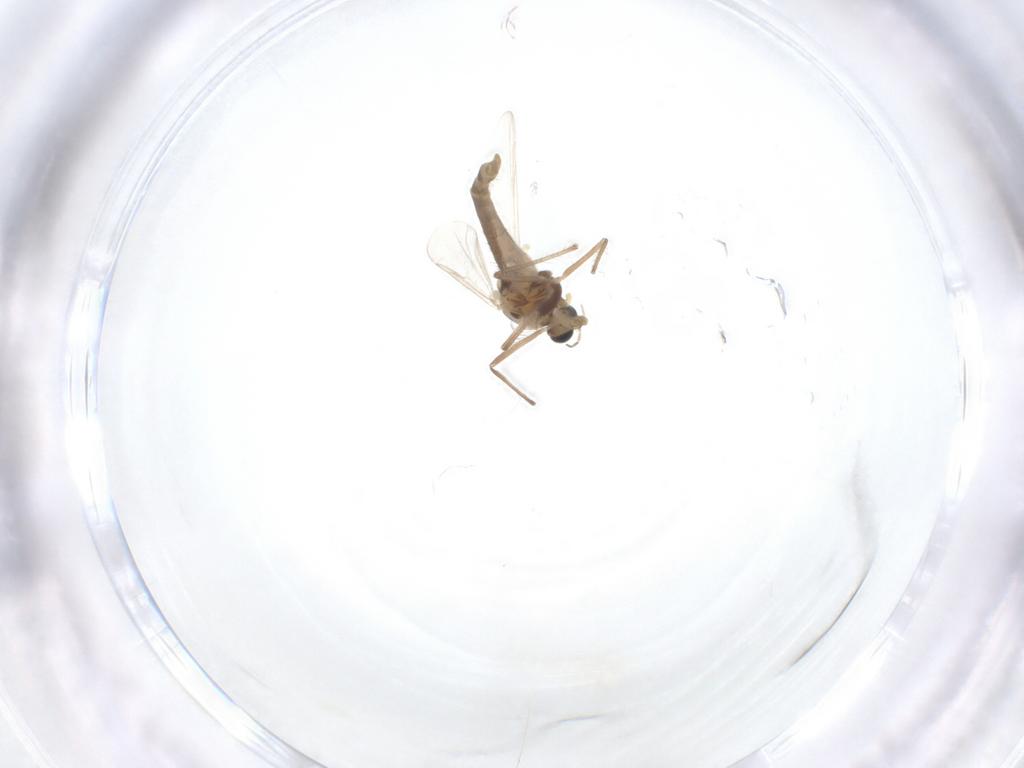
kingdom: Animalia
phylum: Arthropoda
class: Insecta
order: Diptera
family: Chironomidae
